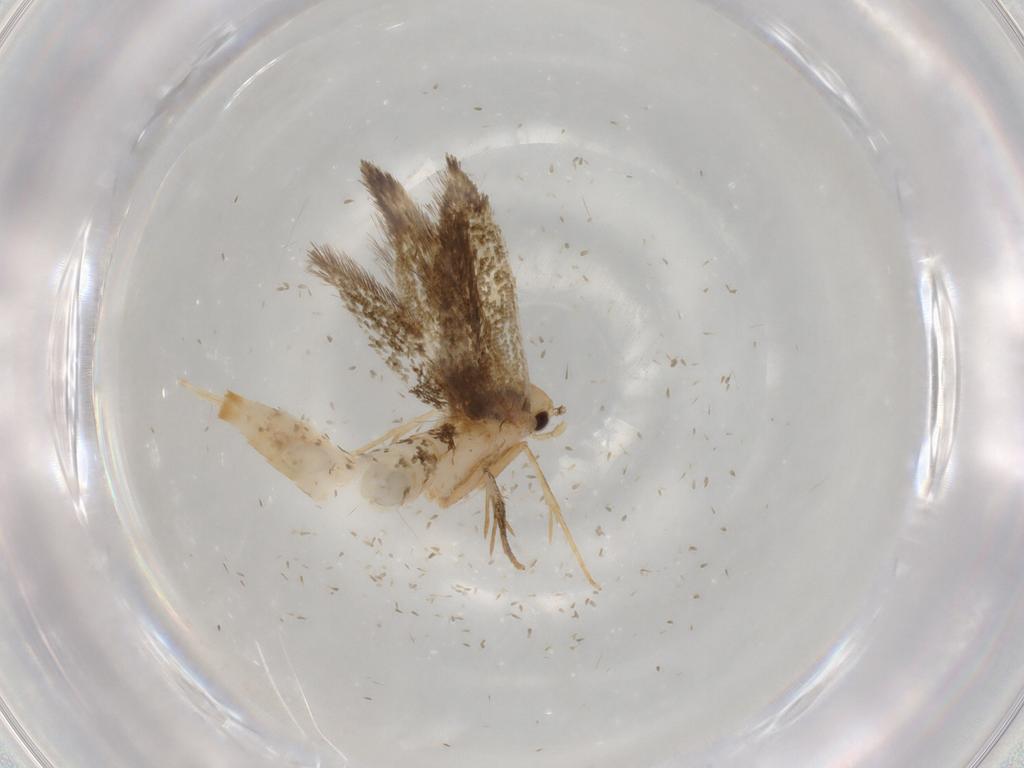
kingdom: Animalia
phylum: Arthropoda
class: Insecta
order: Lepidoptera
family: Tineidae
